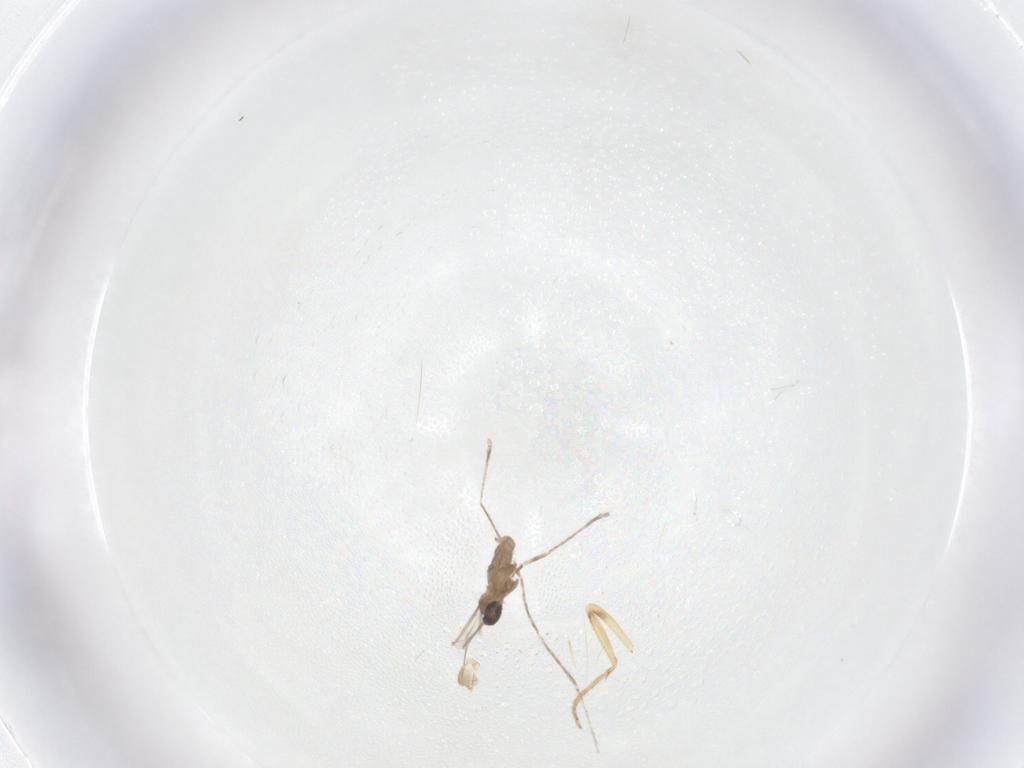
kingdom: Animalia
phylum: Arthropoda
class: Insecta
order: Diptera
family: Ceratopogonidae
